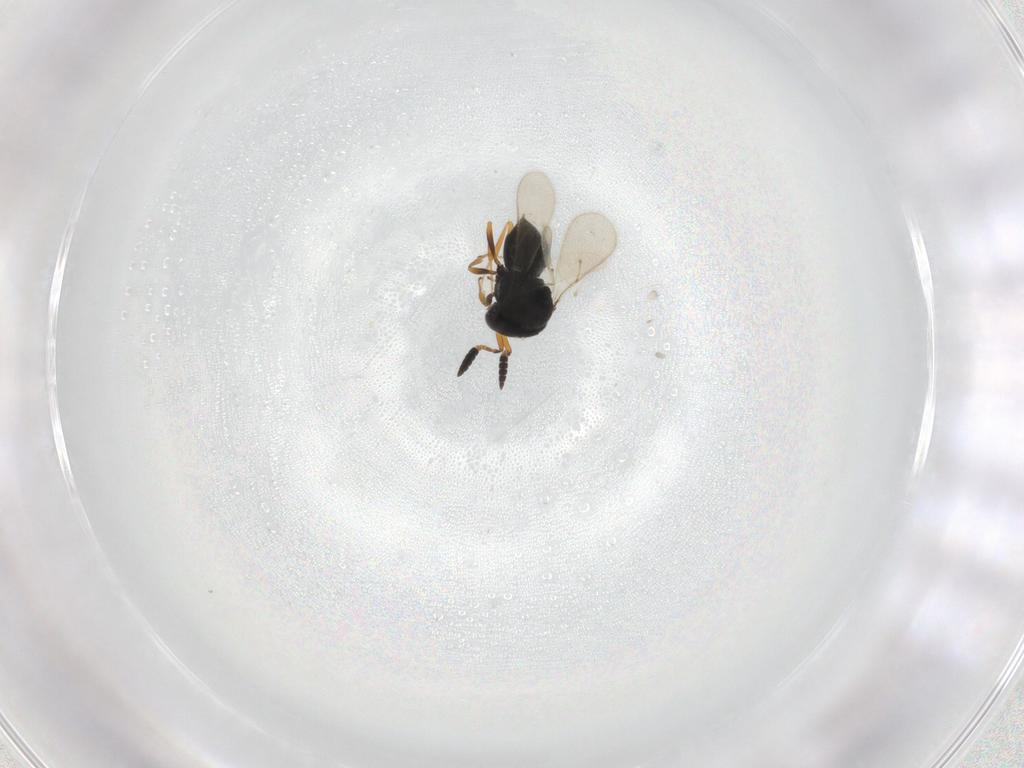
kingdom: Animalia
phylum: Arthropoda
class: Insecta
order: Hymenoptera
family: Scelionidae
